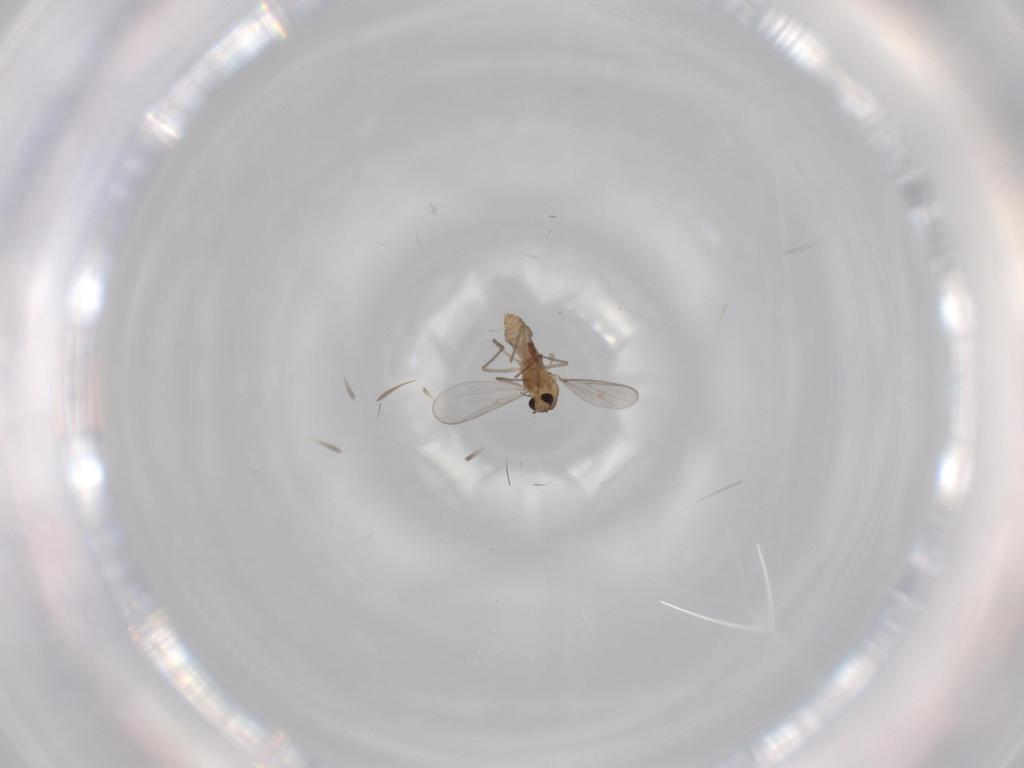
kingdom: Animalia
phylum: Arthropoda
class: Insecta
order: Diptera
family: Chironomidae
